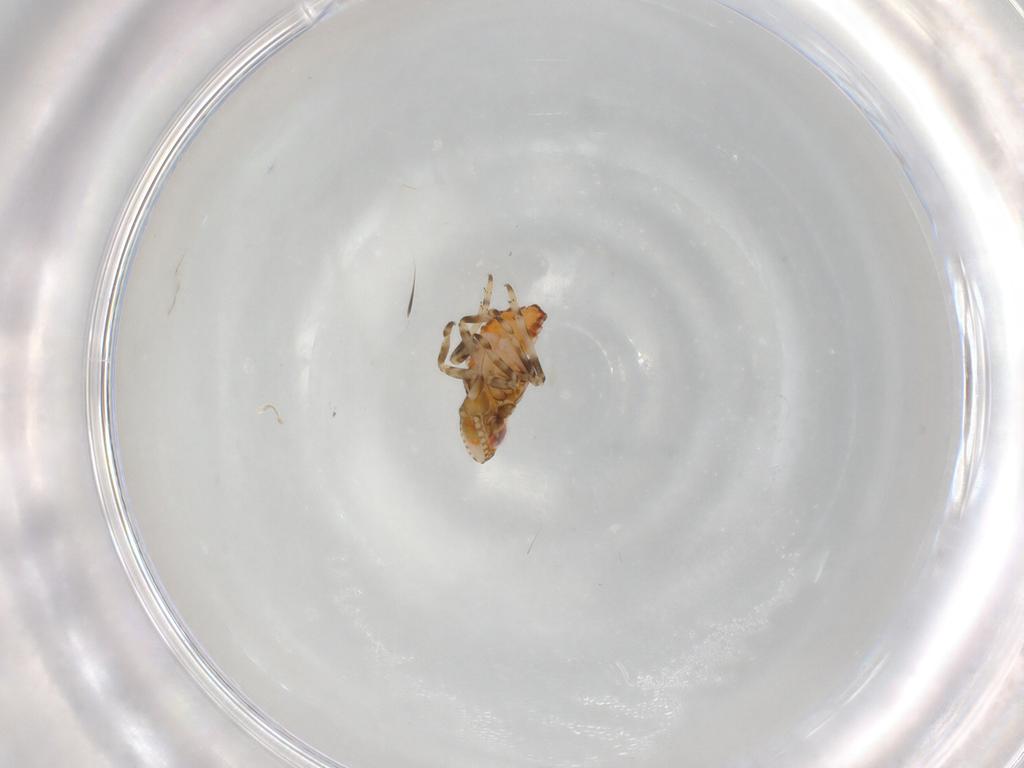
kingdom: Animalia
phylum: Arthropoda
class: Insecta
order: Hemiptera
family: Tropiduchidae
